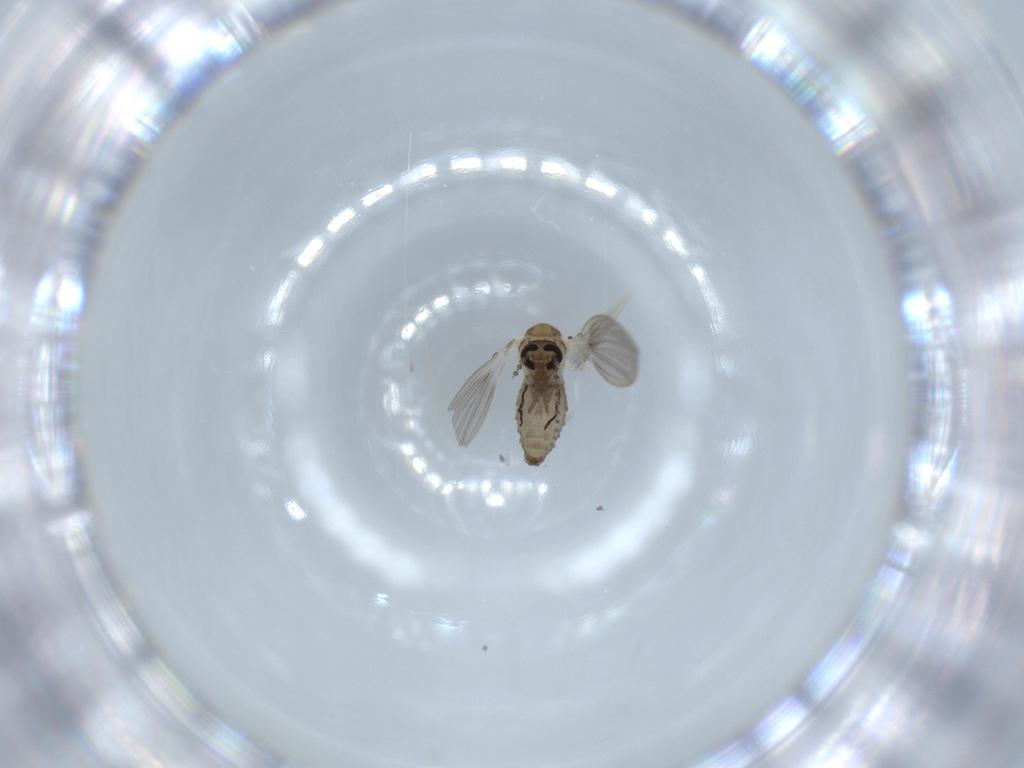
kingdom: Animalia
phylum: Arthropoda
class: Insecta
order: Diptera
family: Psychodidae
